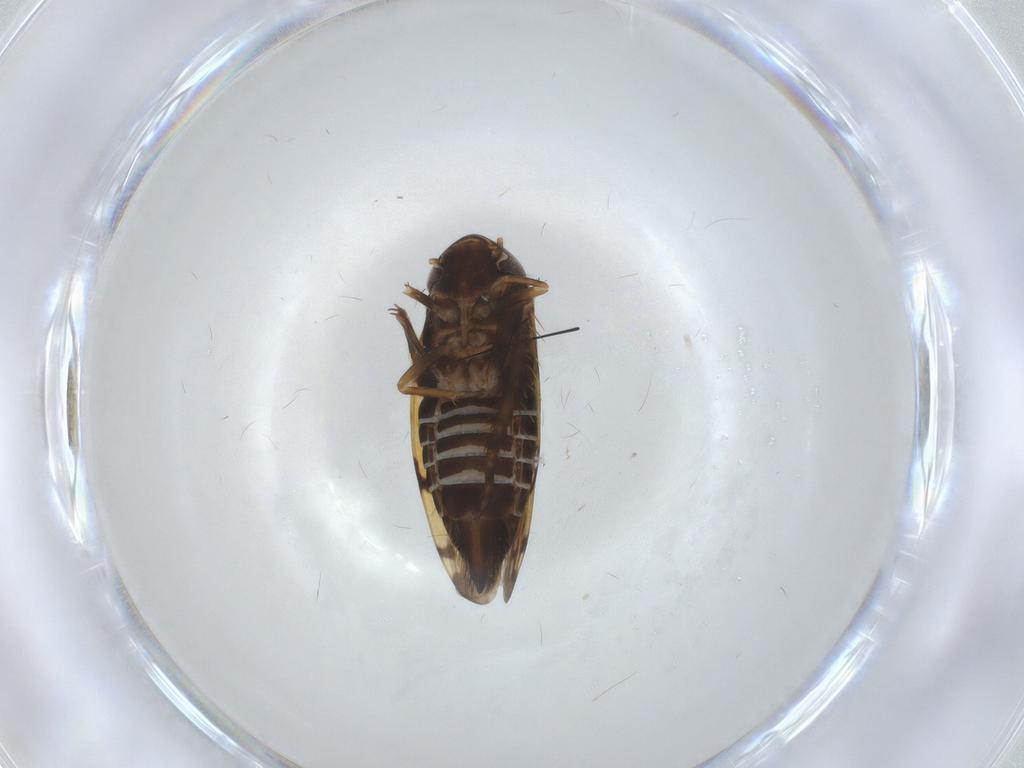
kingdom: Animalia
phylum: Arthropoda
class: Insecta
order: Hemiptera
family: Cicadellidae
